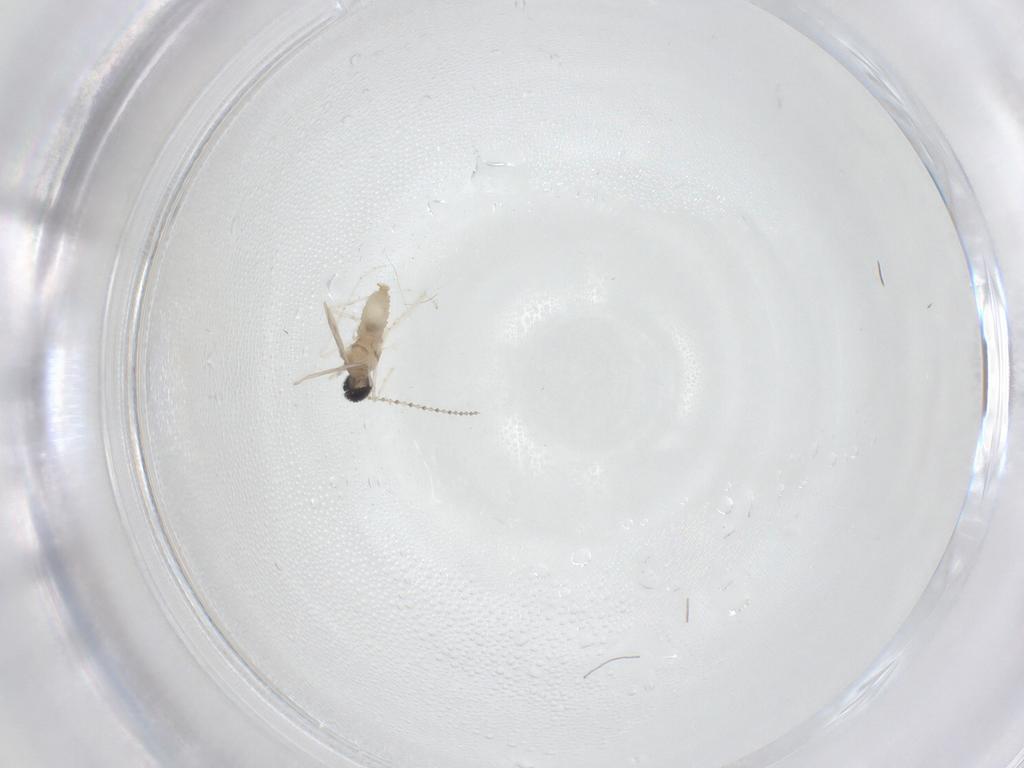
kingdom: Animalia
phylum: Arthropoda
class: Insecta
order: Diptera
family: Cecidomyiidae
